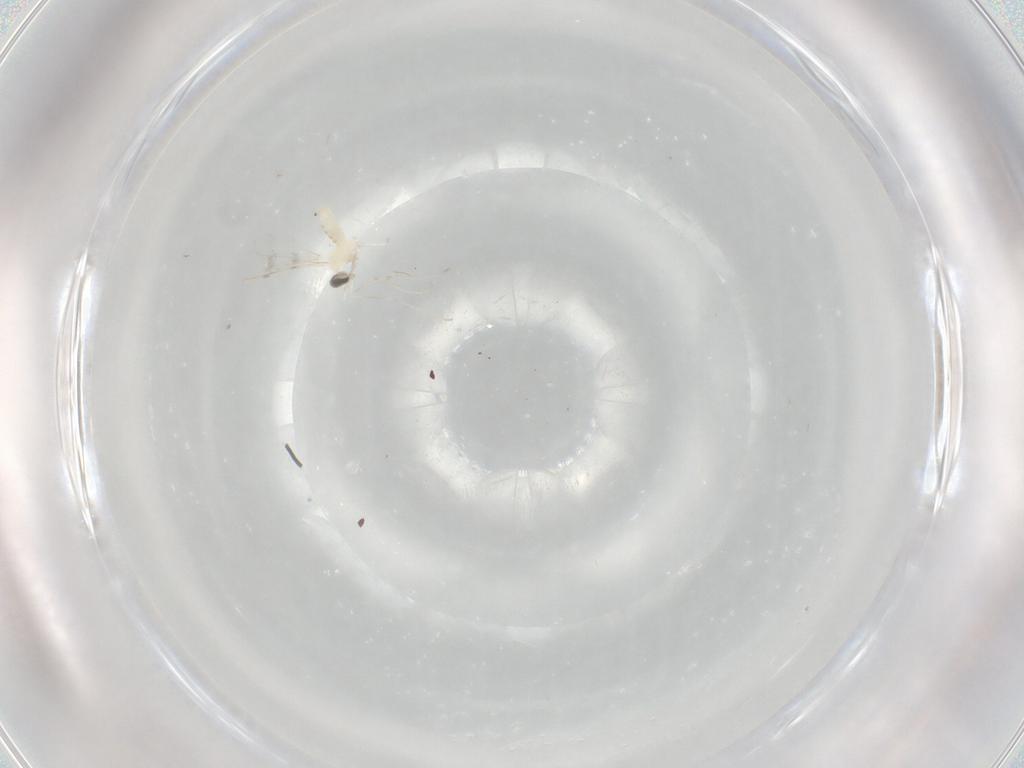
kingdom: Animalia
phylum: Arthropoda
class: Insecta
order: Diptera
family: Cecidomyiidae
